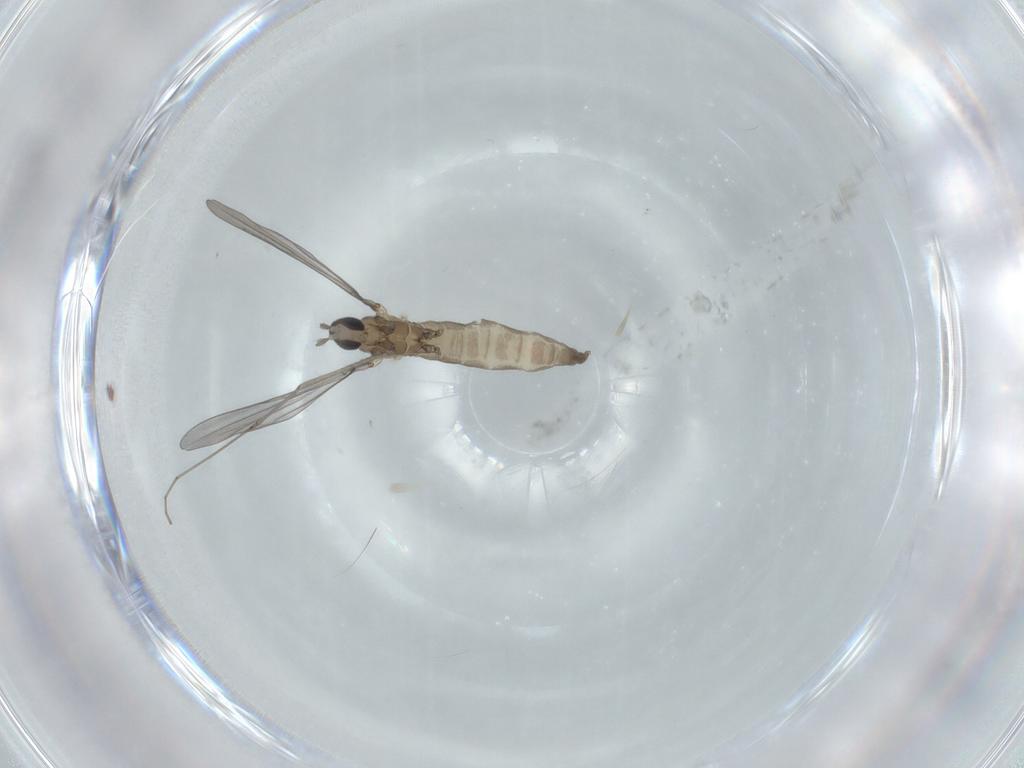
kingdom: Animalia
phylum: Arthropoda
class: Insecta
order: Diptera
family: Cecidomyiidae
